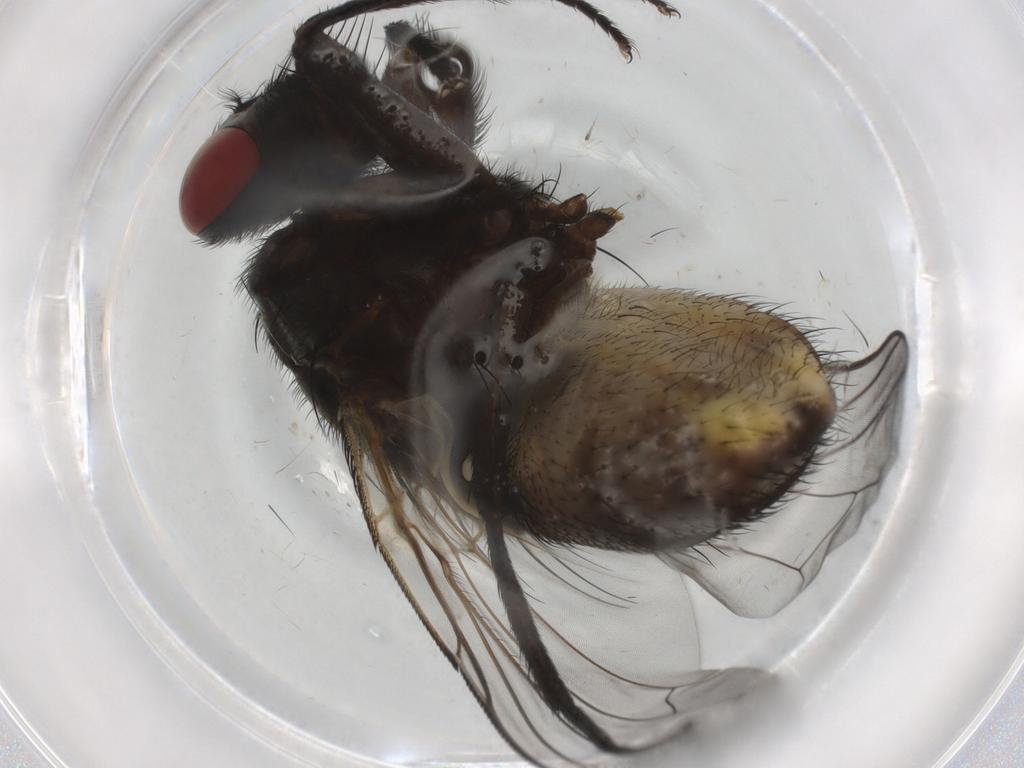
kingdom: Animalia
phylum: Arthropoda
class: Insecta
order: Diptera
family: Muscidae
